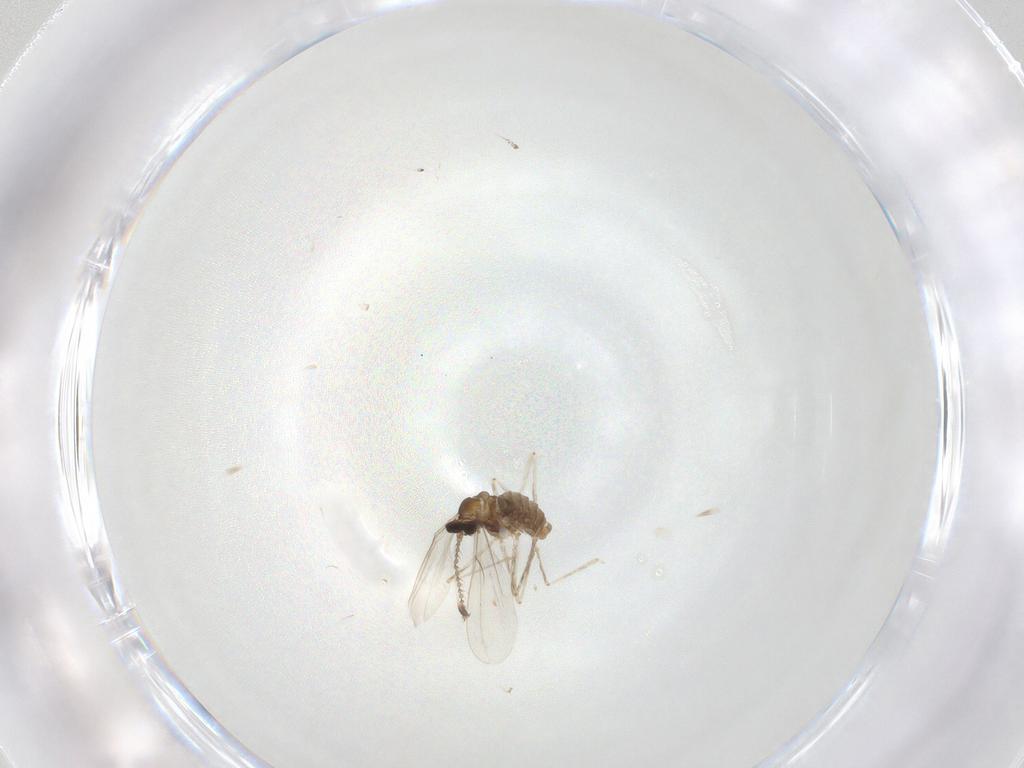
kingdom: Animalia
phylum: Arthropoda
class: Insecta
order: Diptera
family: Cecidomyiidae
